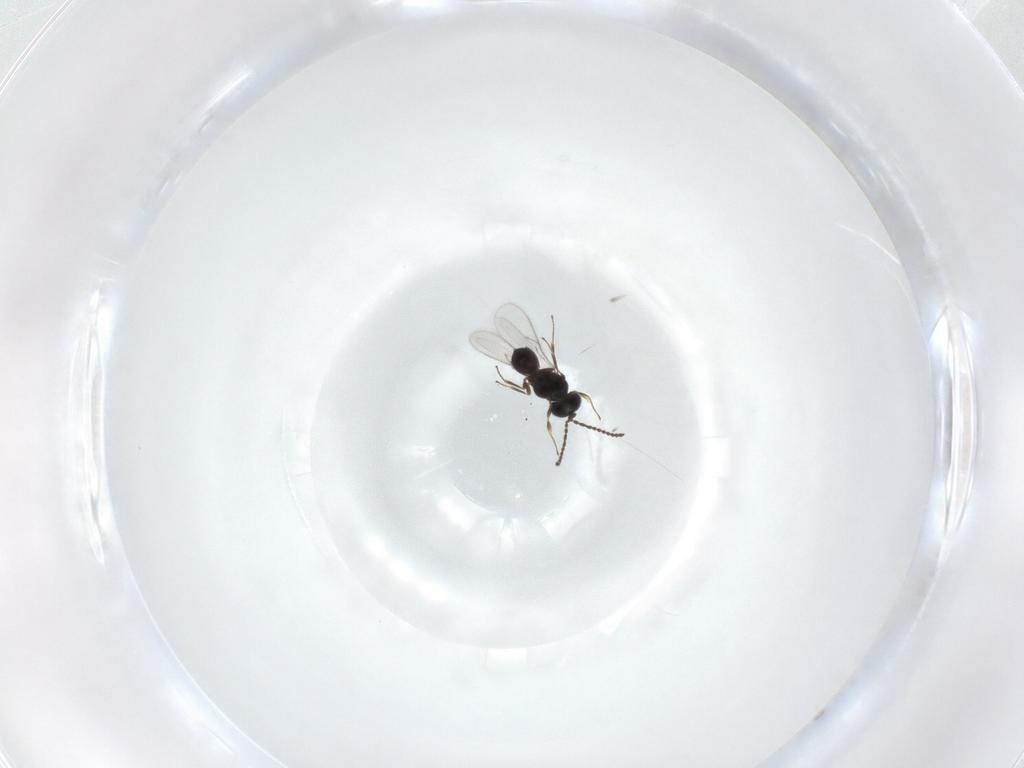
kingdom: Animalia
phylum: Arthropoda
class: Insecta
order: Hymenoptera
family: Scelionidae
